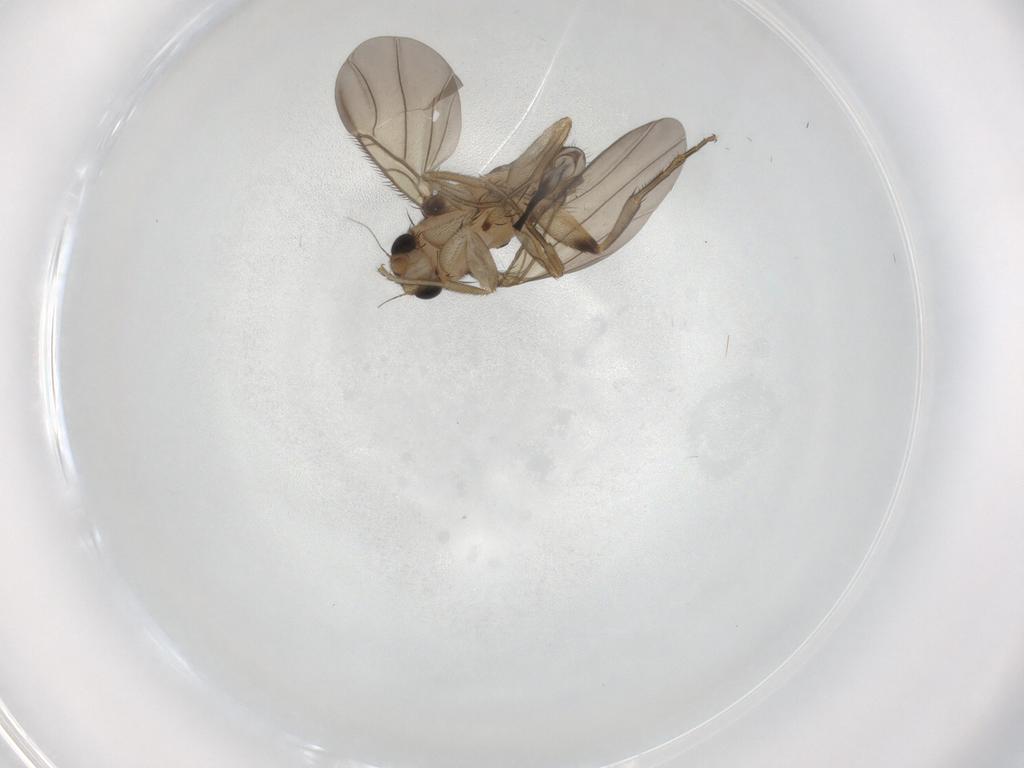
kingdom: Animalia
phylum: Arthropoda
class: Insecta
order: Diptera
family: Phoridae
